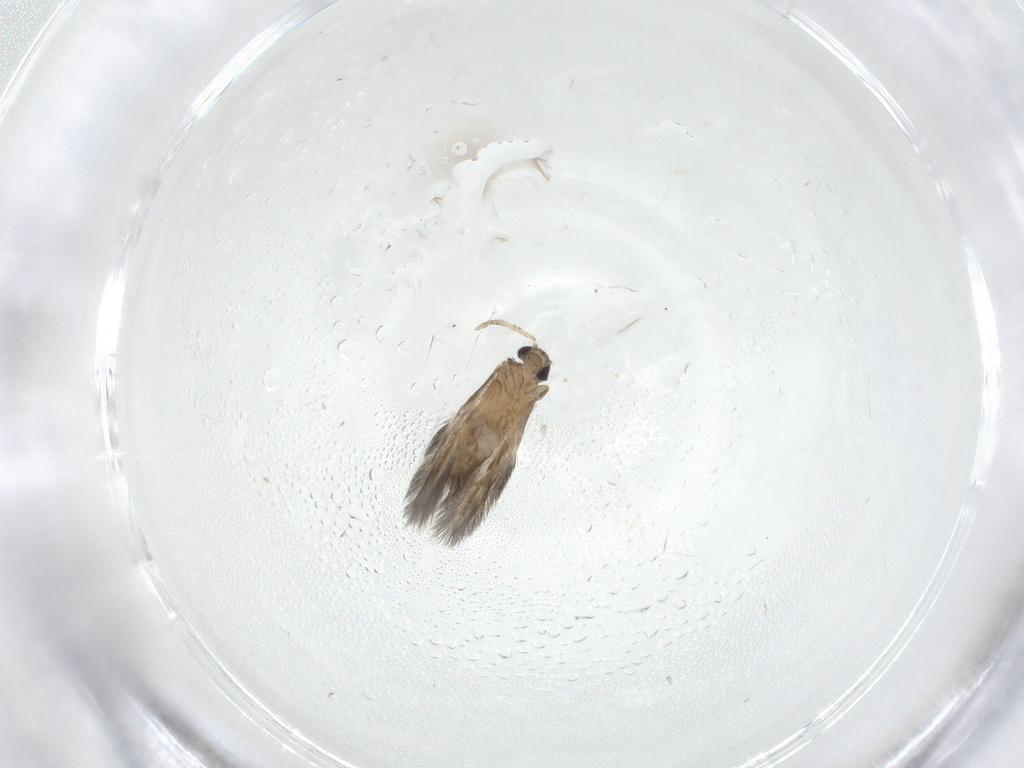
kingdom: Animalia
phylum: Arthropoda
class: Insecta
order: Trichoptera
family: Hydroptilidae
